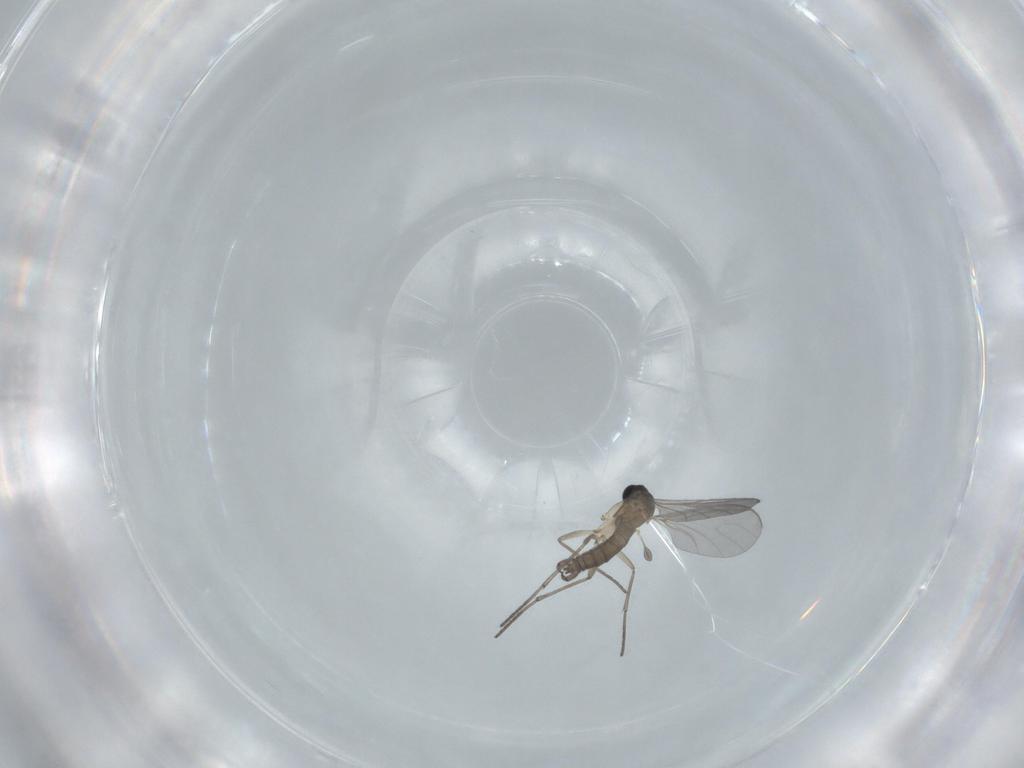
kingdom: Animalia
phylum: Arthropoda
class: Insecta
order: Diptera
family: Sciaridae
